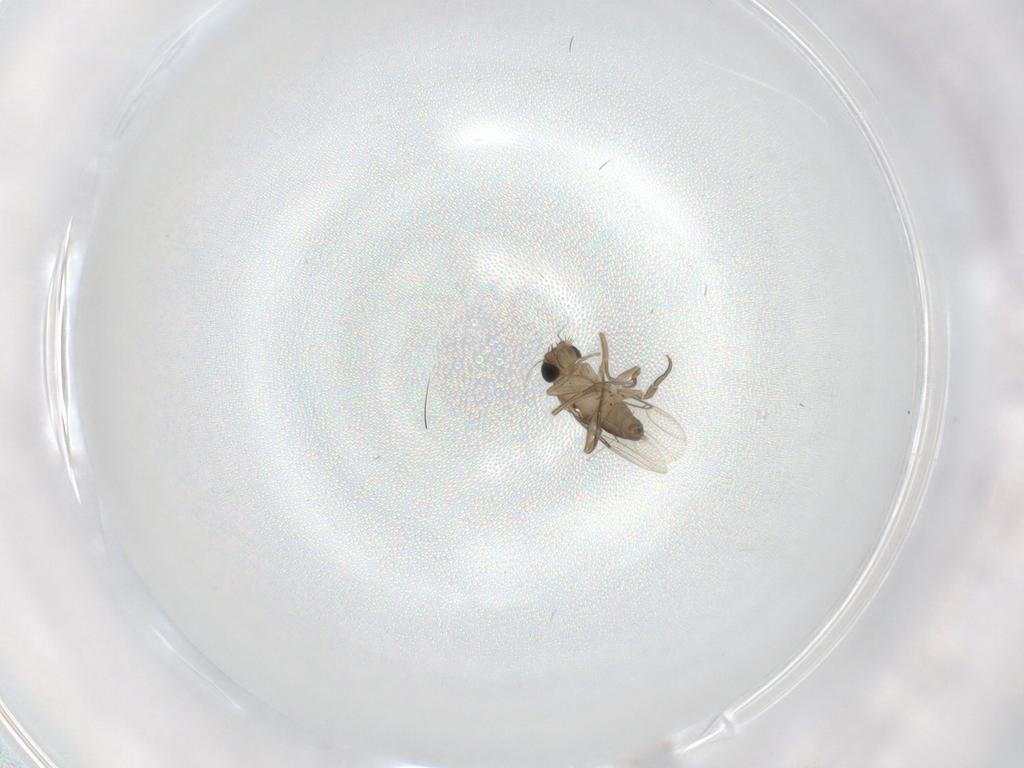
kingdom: Animalia
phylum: Arthropoda
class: Insecta
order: Diptera
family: Phoridae
